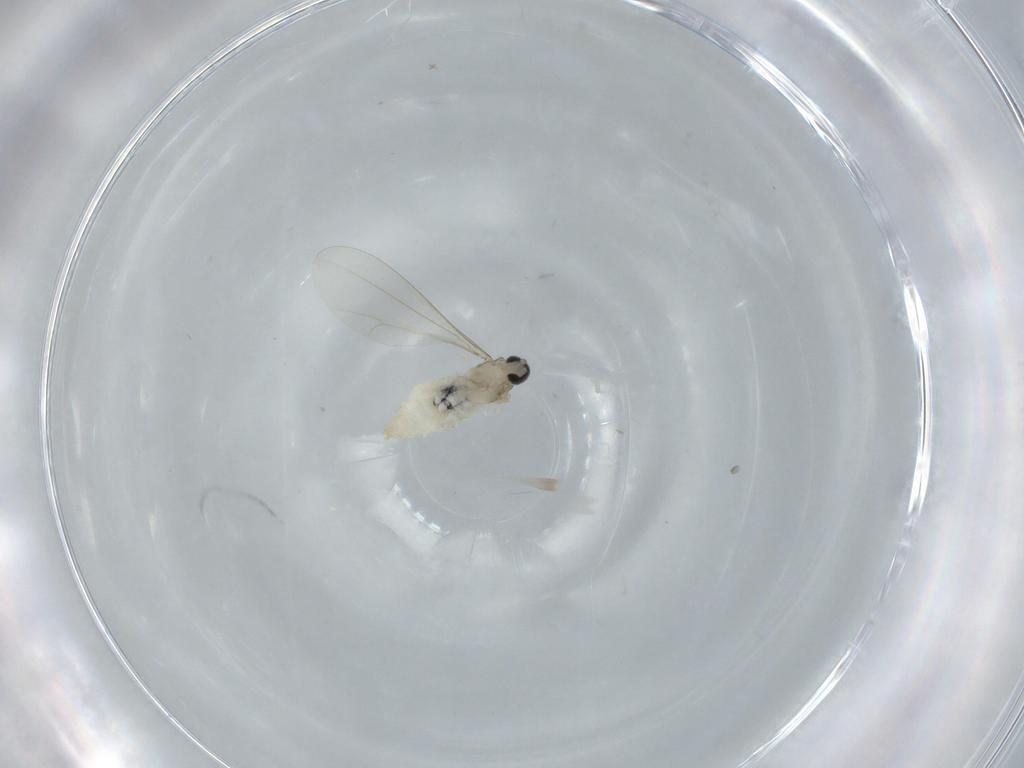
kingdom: Animalia
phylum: Arthropoda
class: Insecta
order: Diptera
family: Cecidomyiidae
